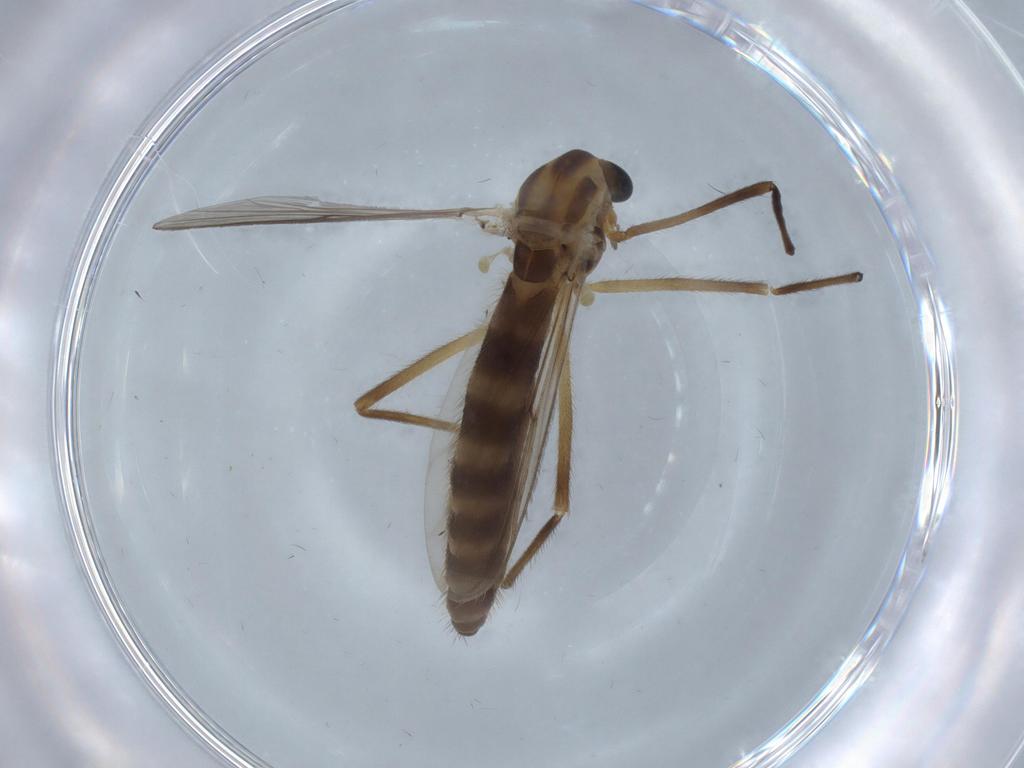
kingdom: Animalia
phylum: Arthropoda
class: Insecta
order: Diptera
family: Chironomidae
